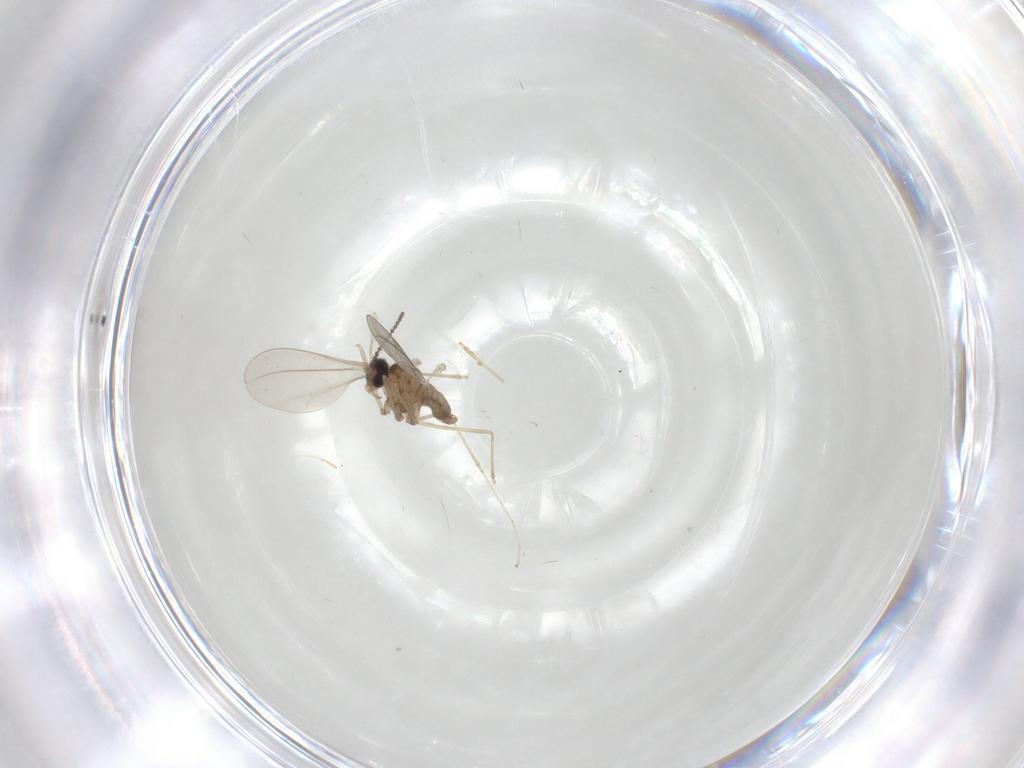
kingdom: Animalia
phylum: Arthropoda
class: Insecta
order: Diptera
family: Cecidomyiidae
